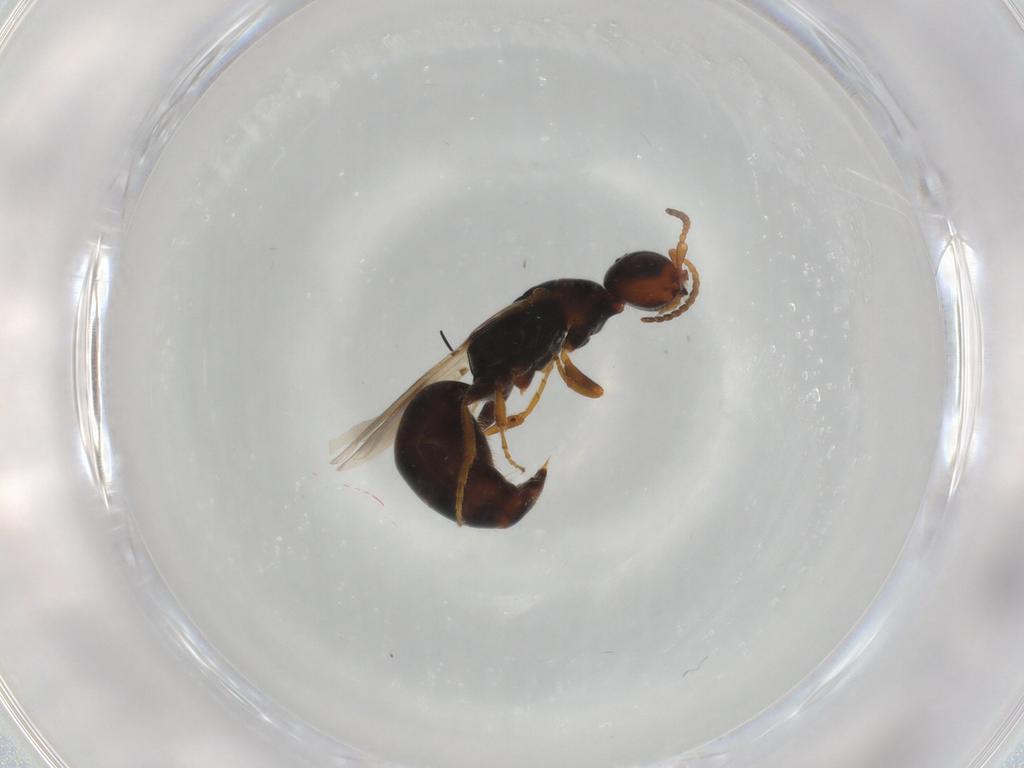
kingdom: Animalia
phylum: Arthropoda
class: Insecta
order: Hymenoptera
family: Bethylidae
